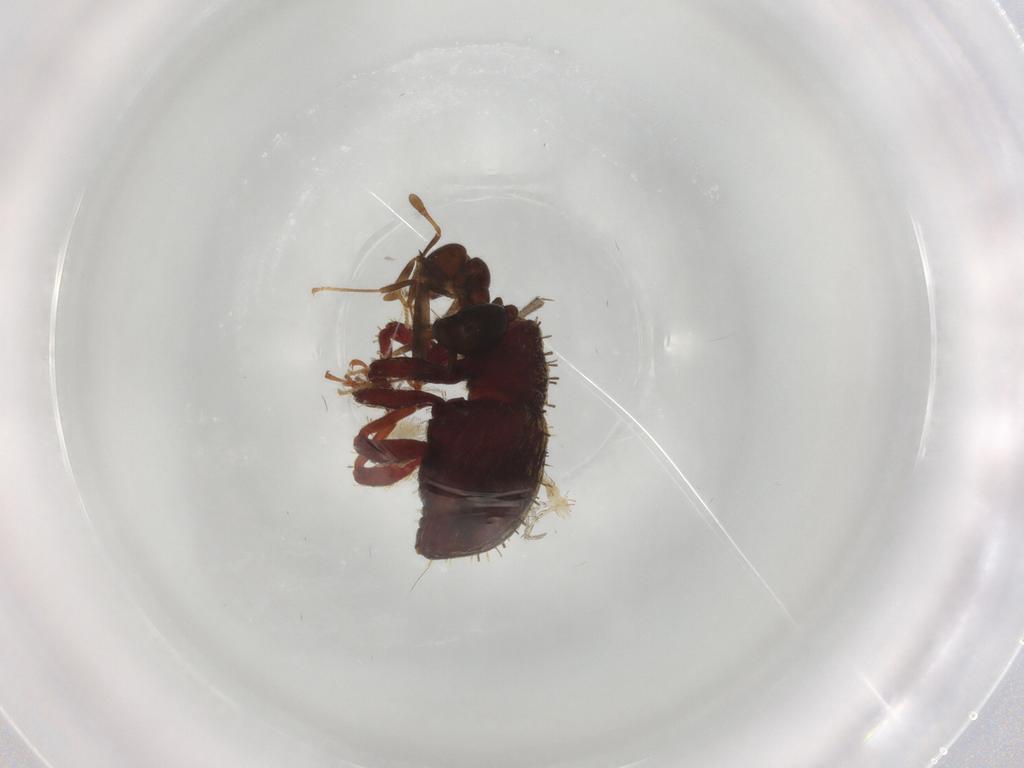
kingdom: Animalia
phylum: Arthropoda
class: Insecta
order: Coleoptera
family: Curculionidae
